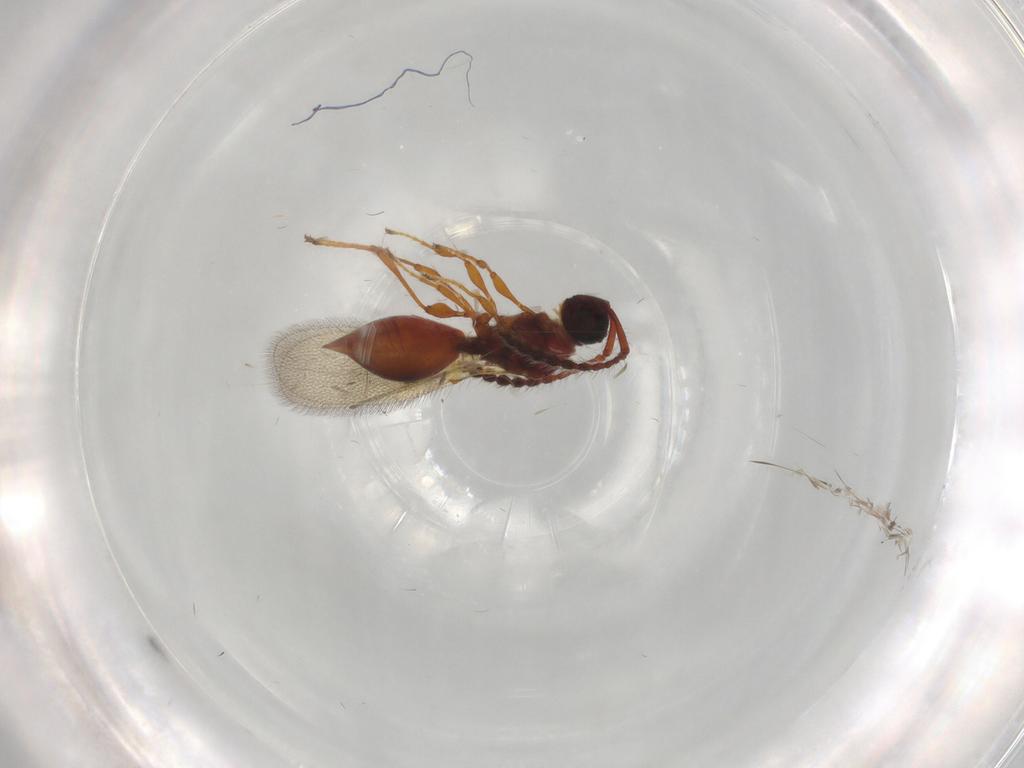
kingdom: Animalia
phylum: Arthropoda
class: Insecta
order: Hymenoptera
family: Diapriidae
